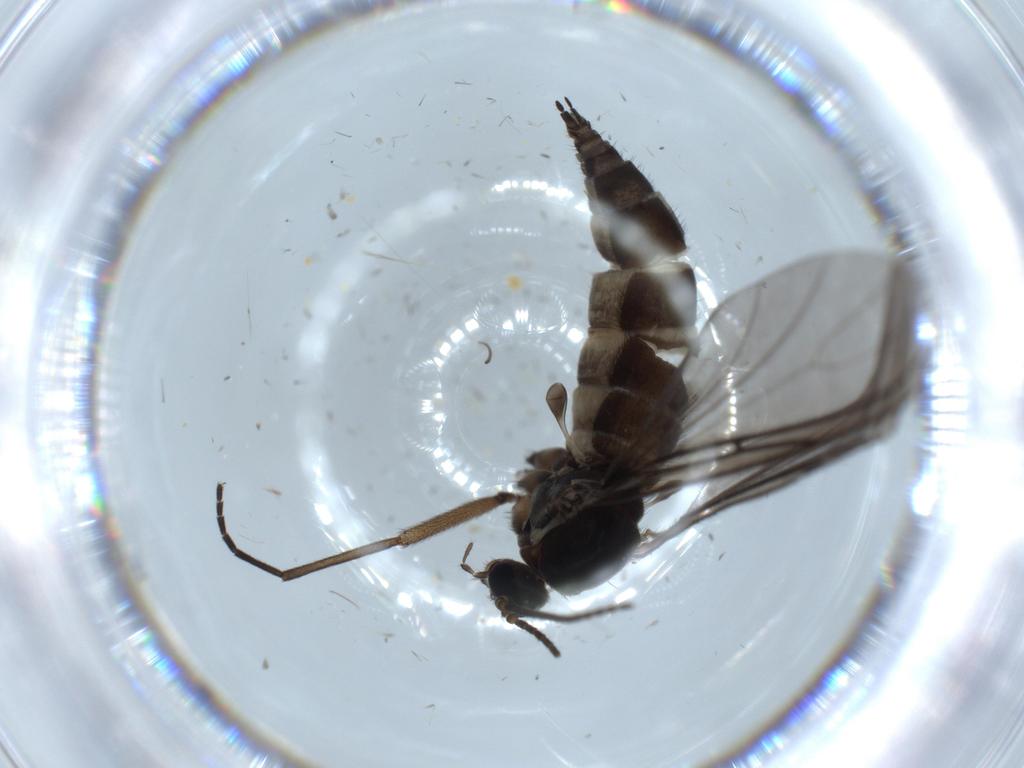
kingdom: Animalia
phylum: Arthropoda
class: Insecta
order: Diptera
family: Sciaridae
